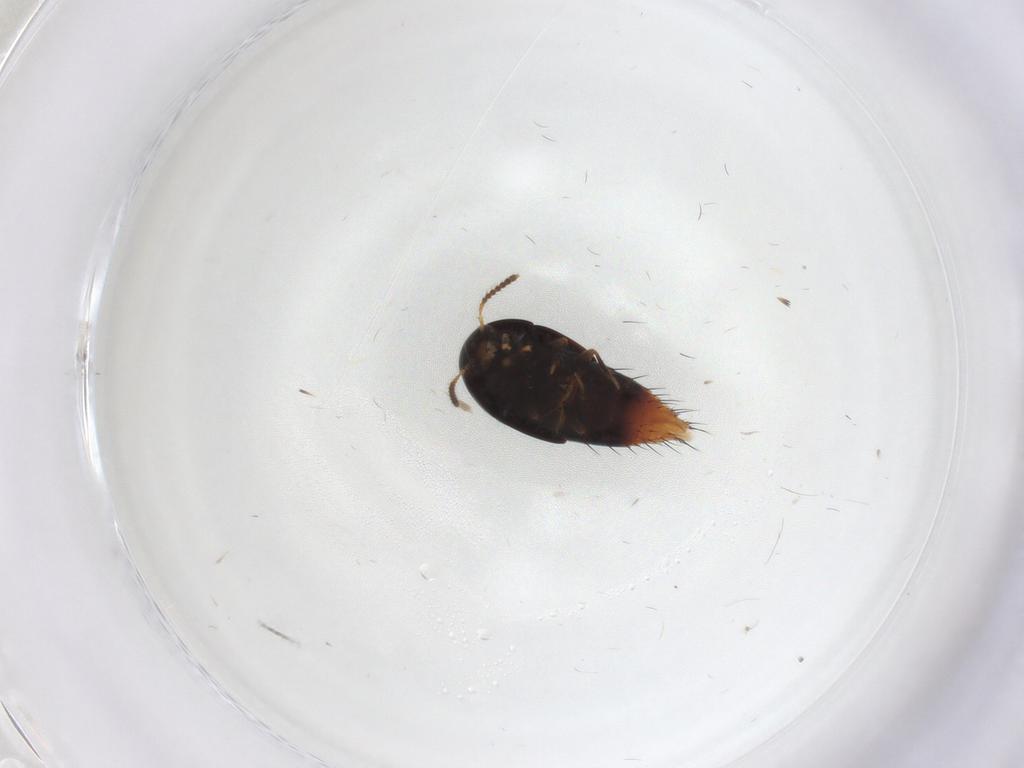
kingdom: Animalia
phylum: Arthropoda
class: Insecta
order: Coleoptera
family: Staphylinidae
